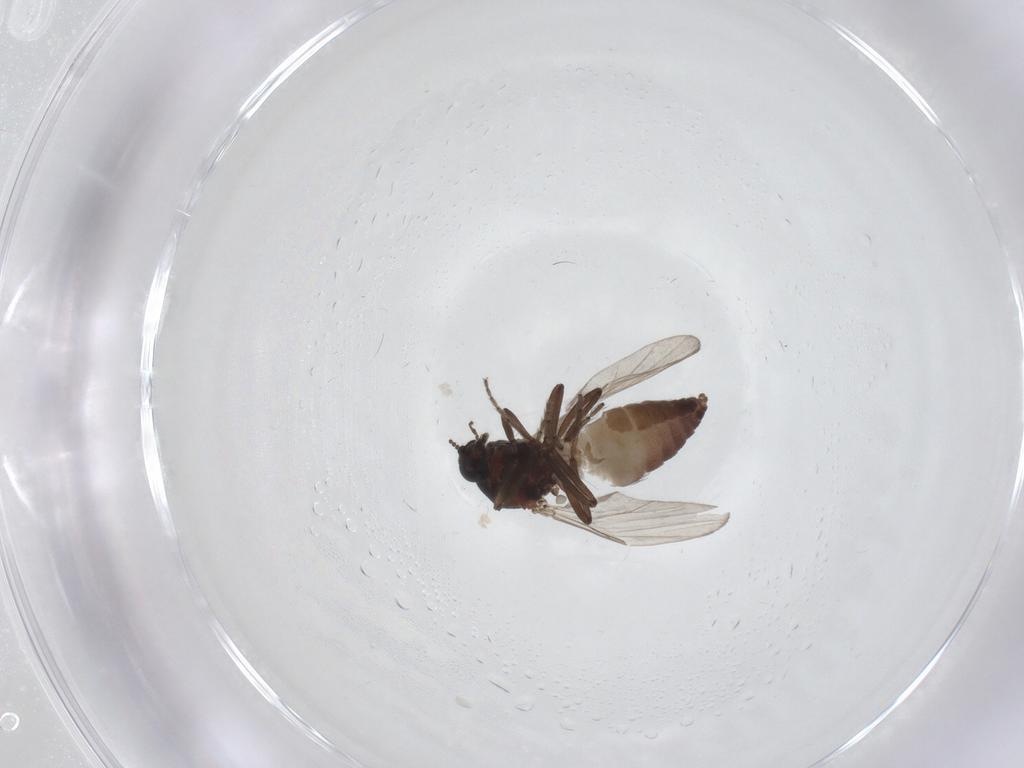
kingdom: Animalia
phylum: Arthropoda
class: Insecta
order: Diptera
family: Ceratopogonidae
